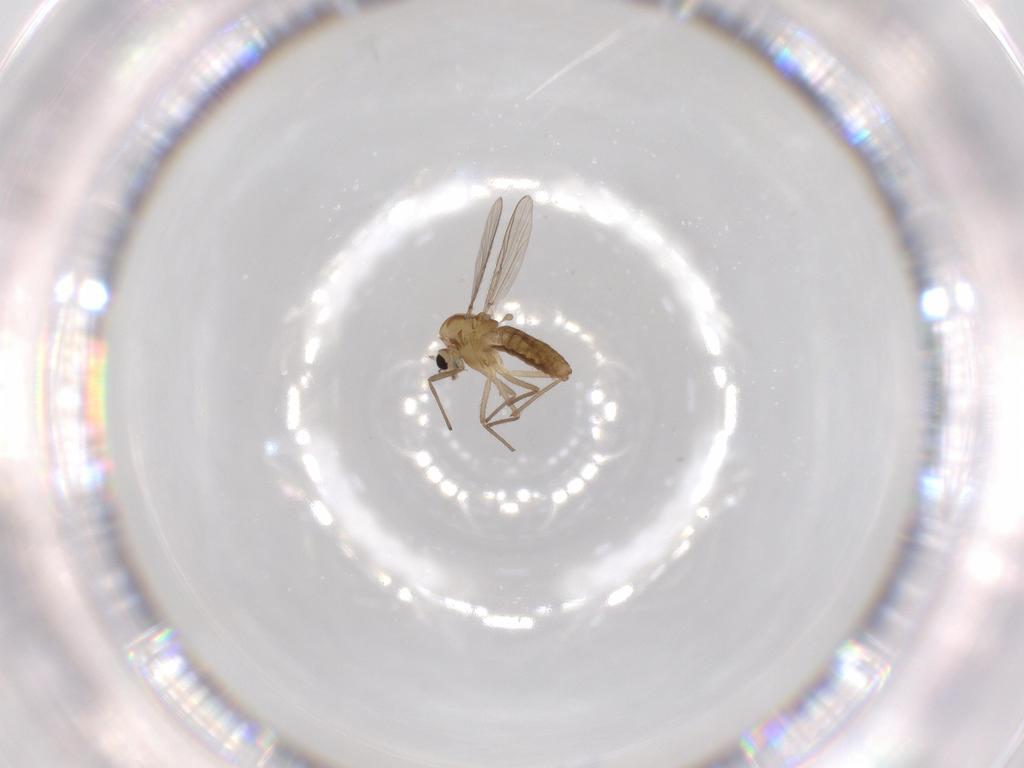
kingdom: Animalia
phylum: Arthropoda
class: Insecta
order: Diptera
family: Chironomidae
